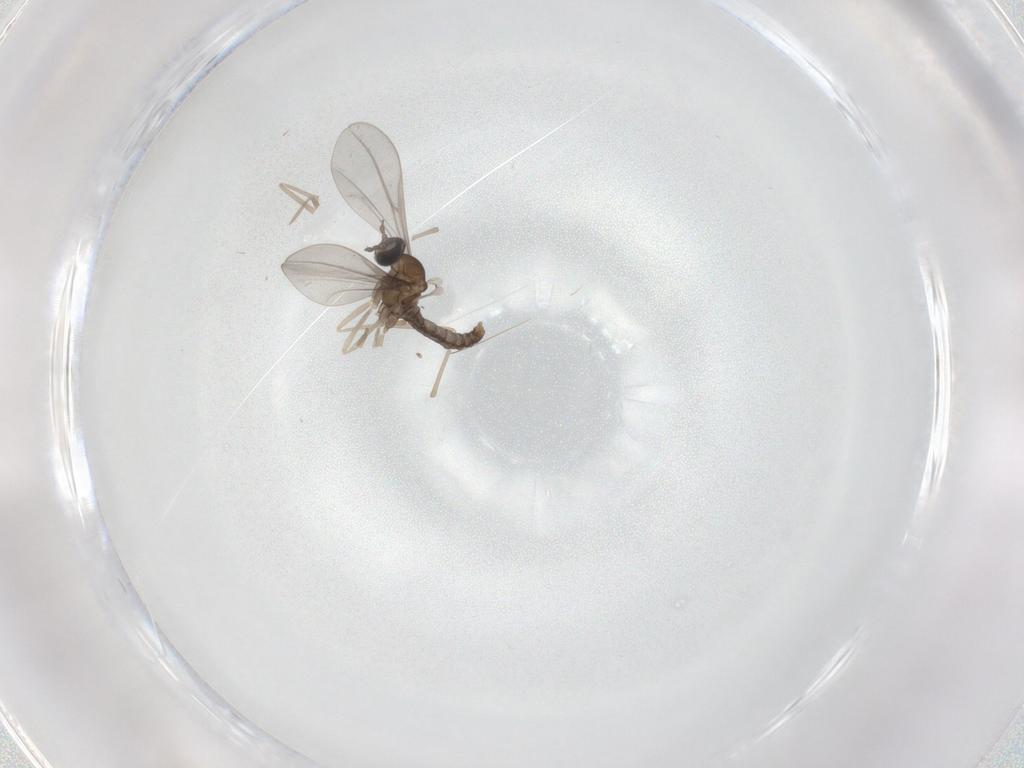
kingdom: Animalia
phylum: Arthropoda
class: Insecta
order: Diptera
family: Cecidomyiidae
